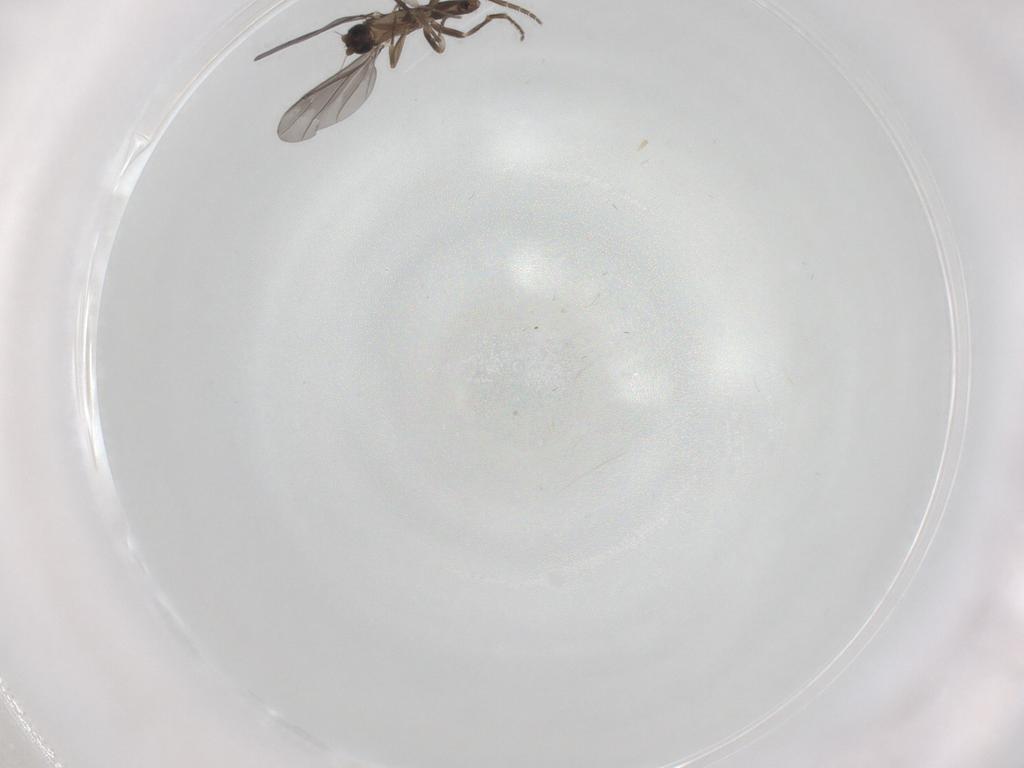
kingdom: Animalia
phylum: Arthropoda
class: Insecta
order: Diptera
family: Phoridae
